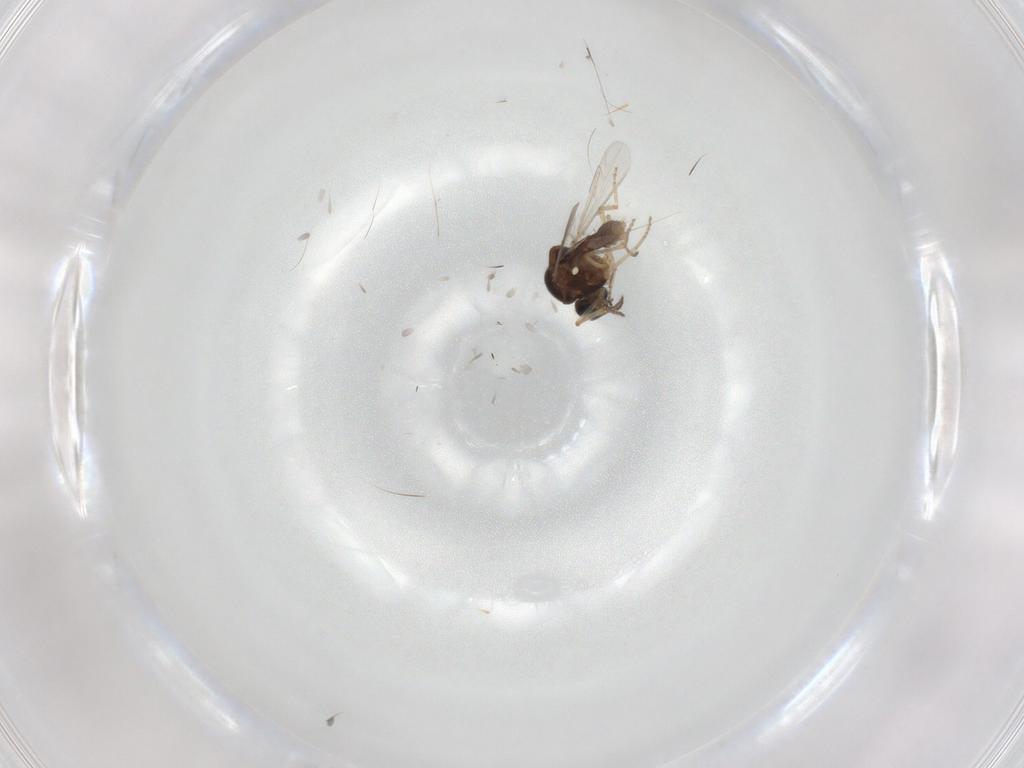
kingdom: Animalia
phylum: Arthropoda
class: Insecta
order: Diptera
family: Ceratopogonidae
